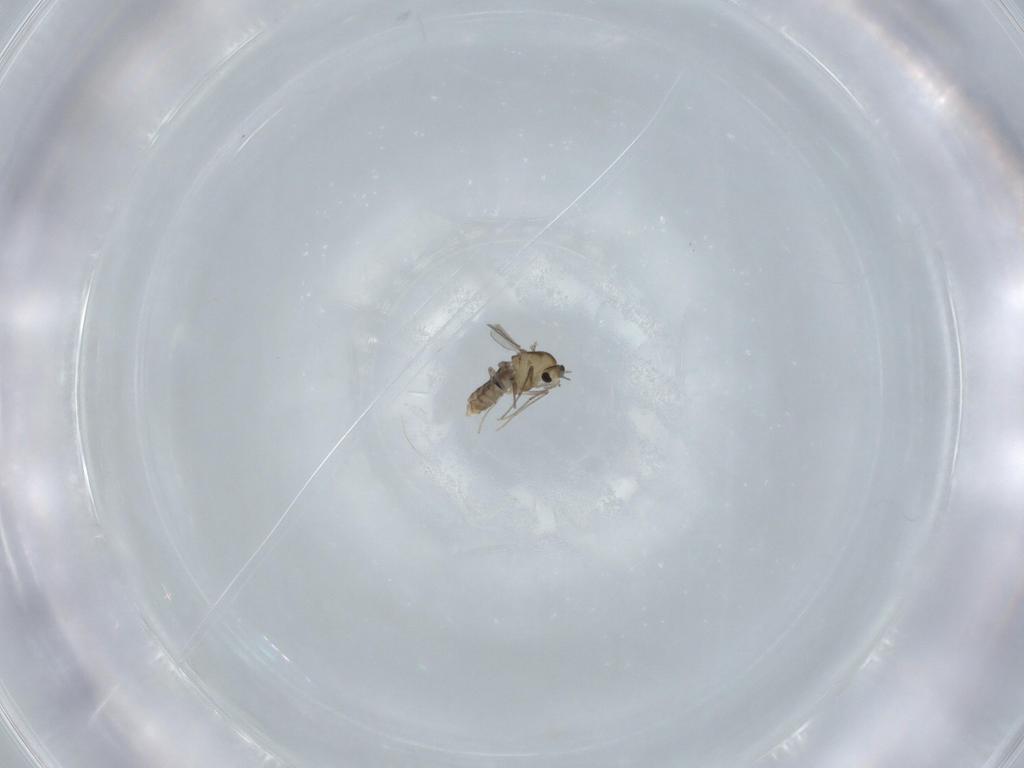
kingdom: Animalia
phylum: Arthropoda
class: Insecta
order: Diptera
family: Chironomidae
